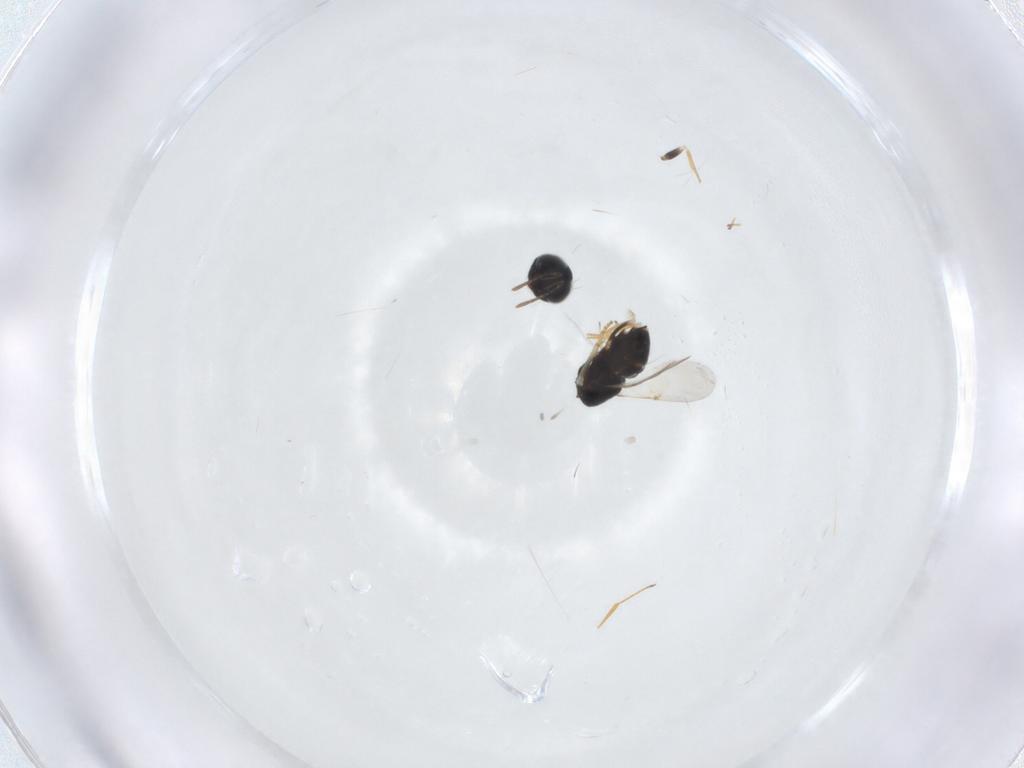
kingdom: Animalia
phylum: Arthropoda
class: Insecta
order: Hymenoptera
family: Encyrtidae
